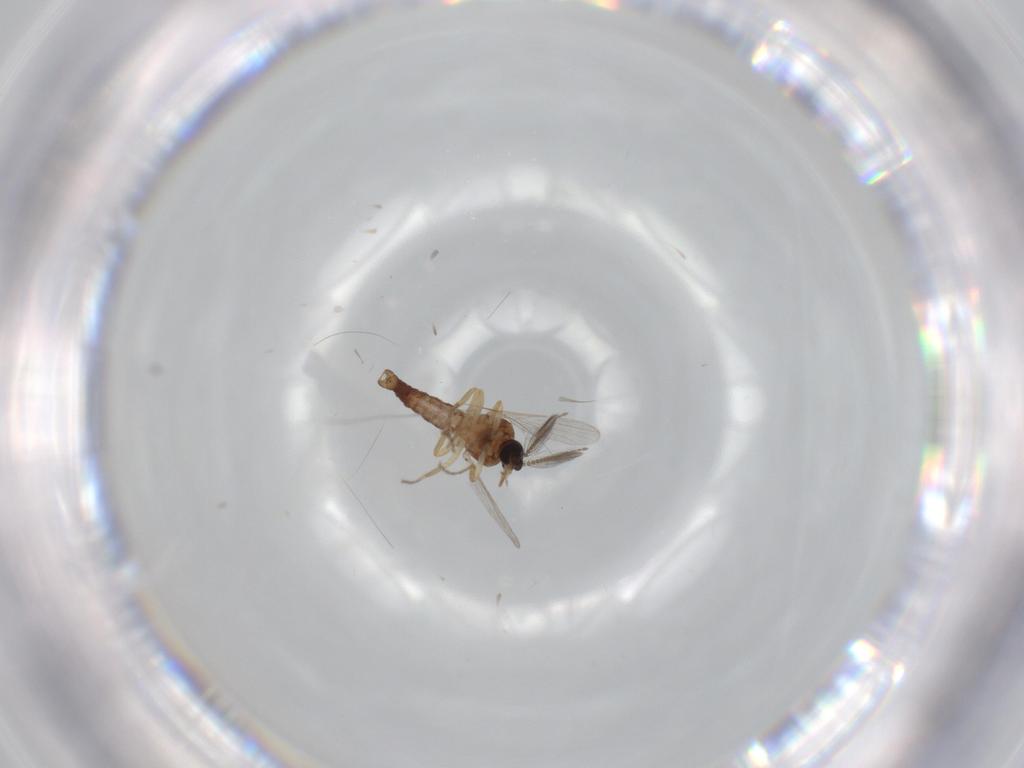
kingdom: Animalia
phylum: Arthropoda
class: Insecta
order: Diptera
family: Ceratopogonidae
